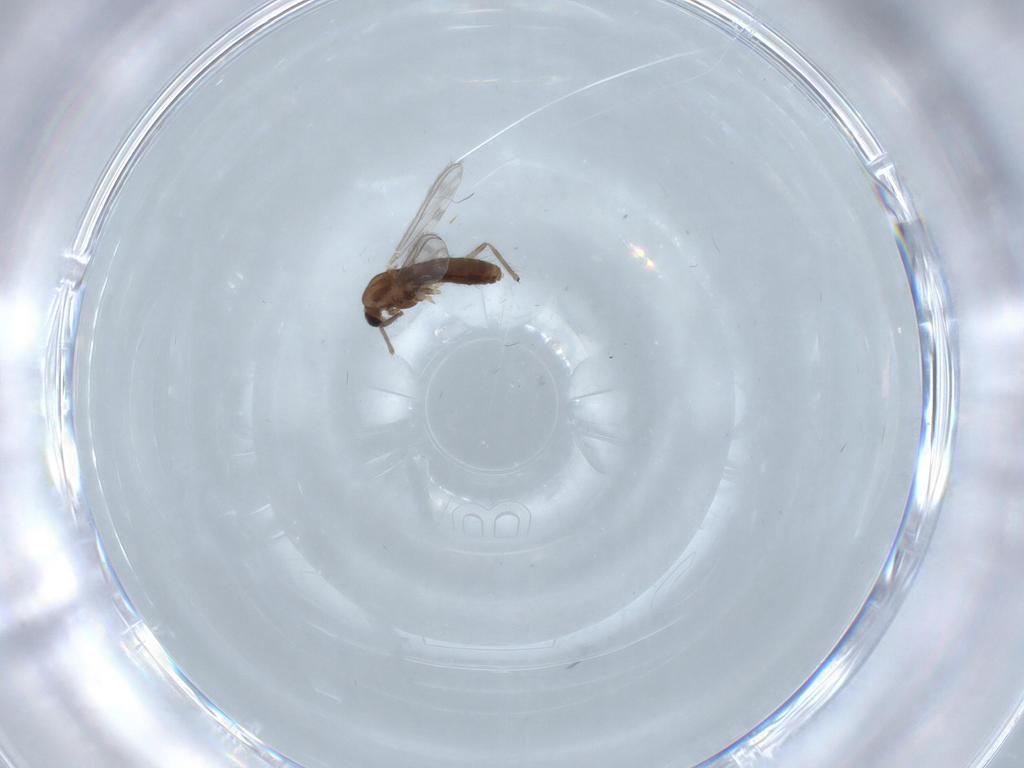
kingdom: Animalia
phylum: Arthropoda
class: Insecta
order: Diptera
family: Chironomidae
